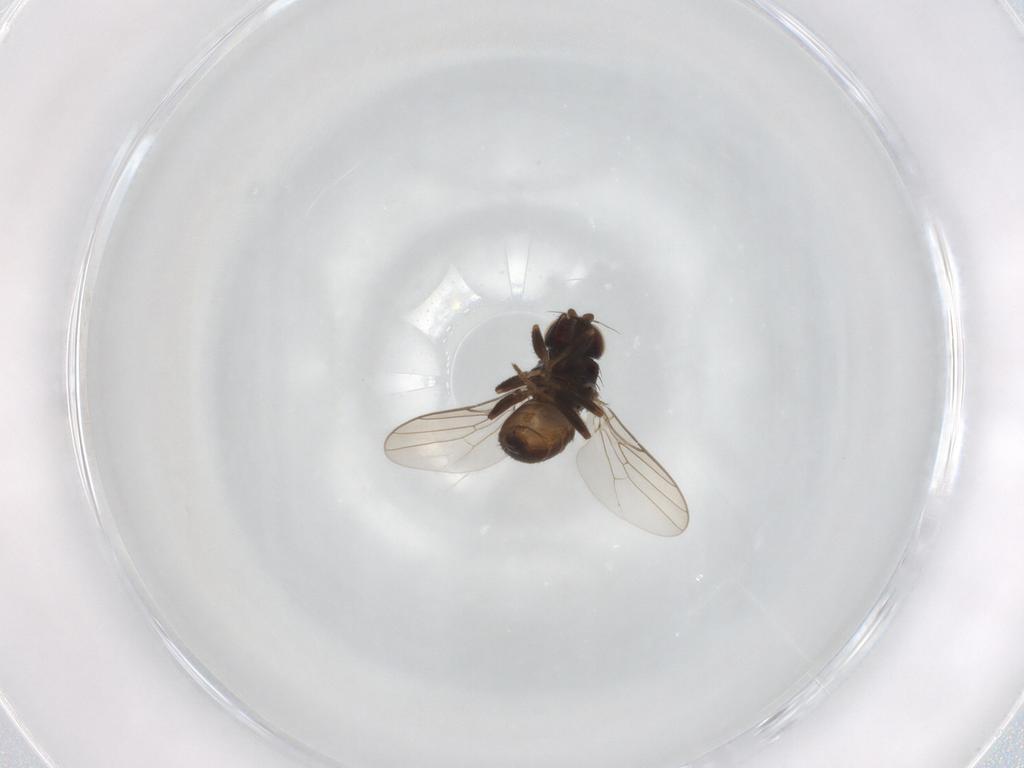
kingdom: Animalia
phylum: Arthropoda
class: Insecta
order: Diptera
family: Chloropidae
